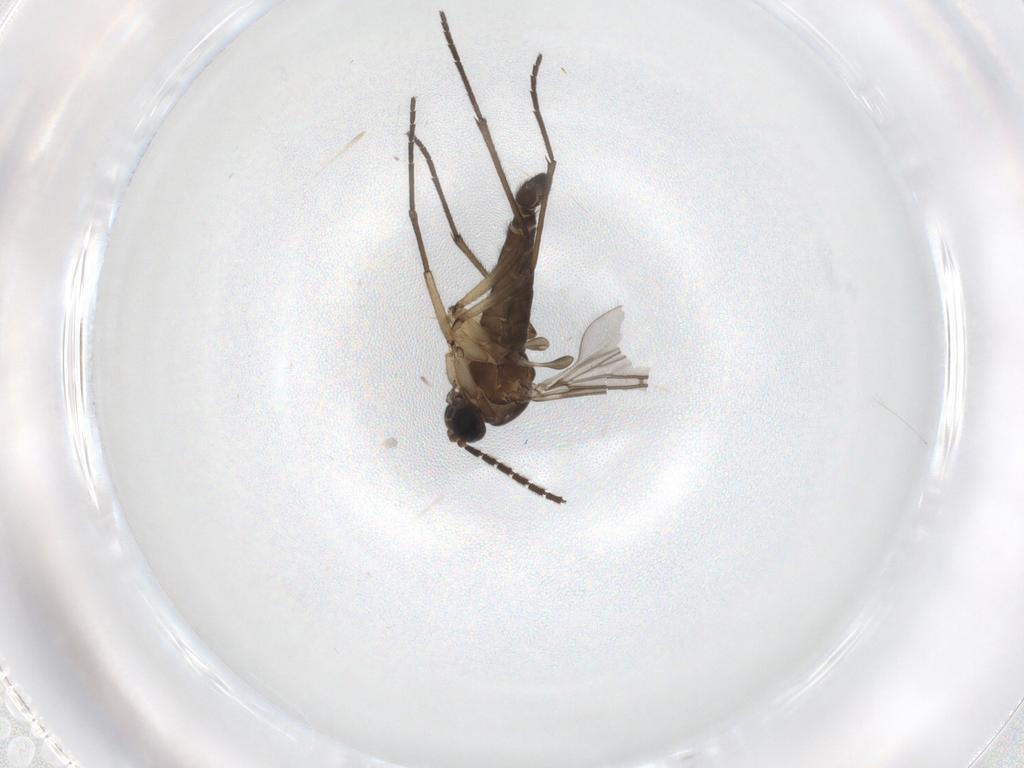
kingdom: Animalia
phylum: Arthropoda
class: Insecta
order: Diptera
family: Sciaridae
